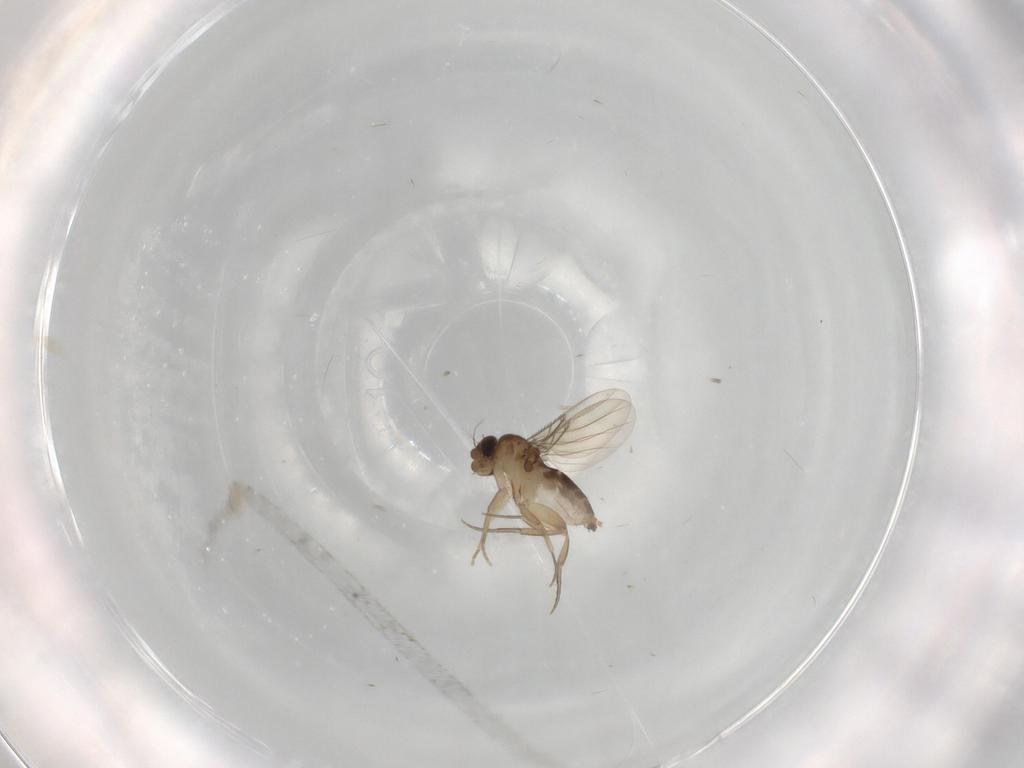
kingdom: Animalia
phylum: Arthropoda
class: Insecta
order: Diptera
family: Phoridae
